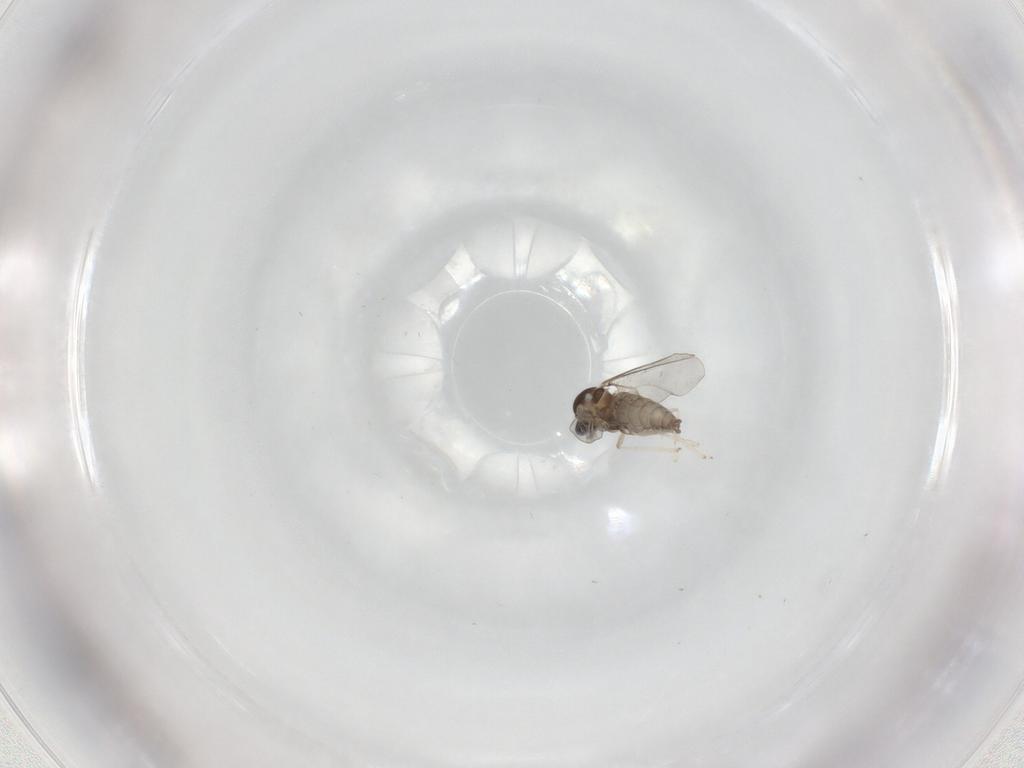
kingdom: Animalia
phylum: Arthropoda
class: Insecta
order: Diptera
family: Cecidomyiidae
